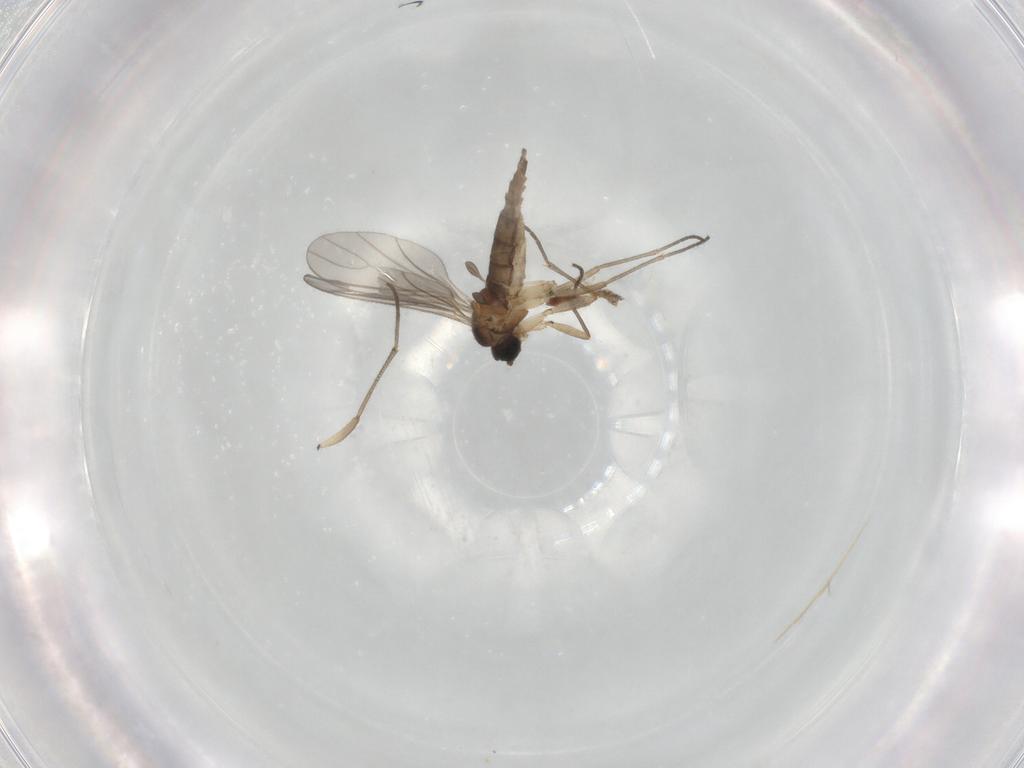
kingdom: Animalia
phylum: Arthropoda
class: Insecta
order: Diptera
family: Sciaridae
